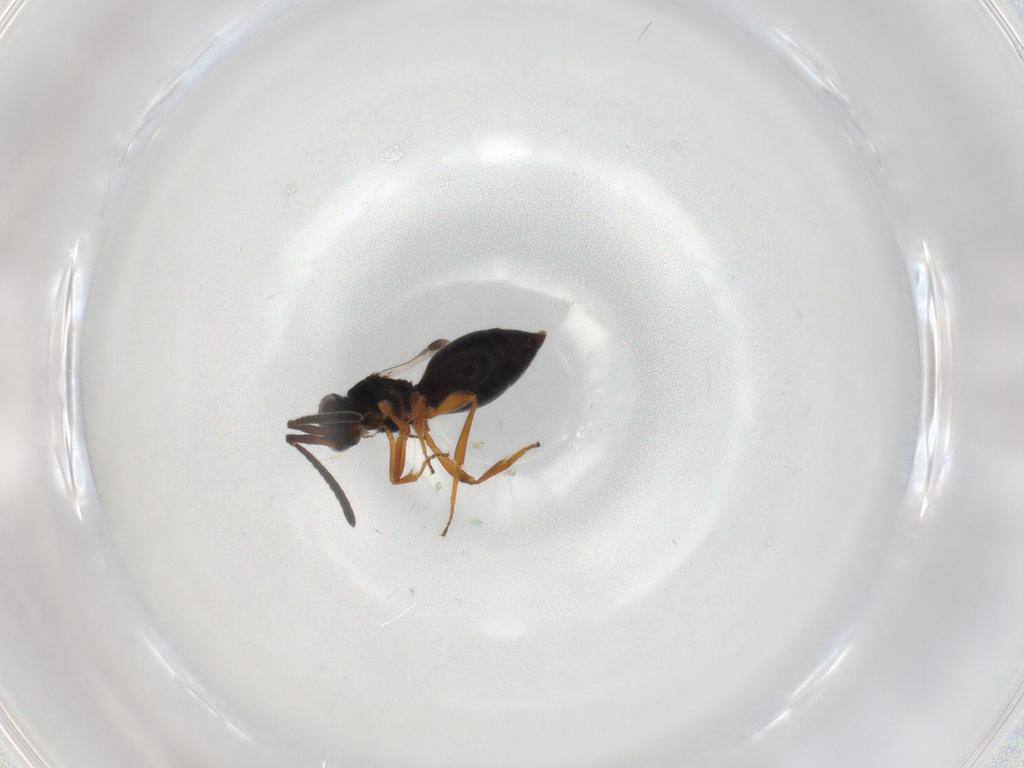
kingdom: Animalia
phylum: Arthropoda
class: Insecta
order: Hymenoptera
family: Megaspilidae
